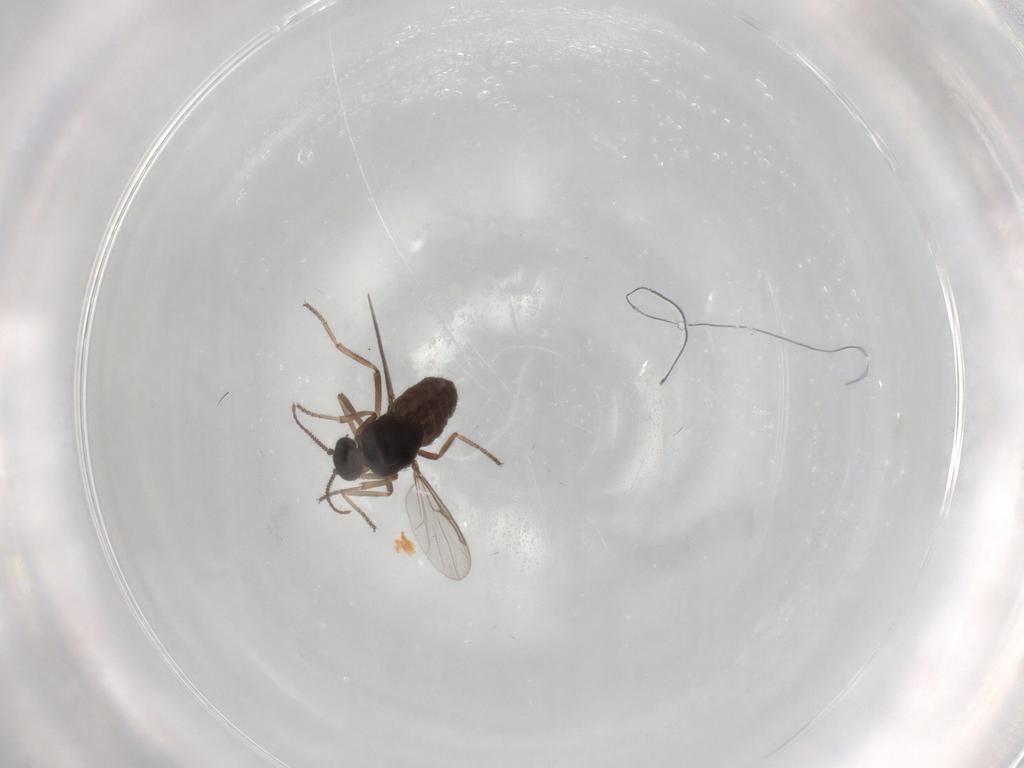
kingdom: Animalia
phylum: Arthropoda
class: Insecta
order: Diptera
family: Ceratopogonidae
